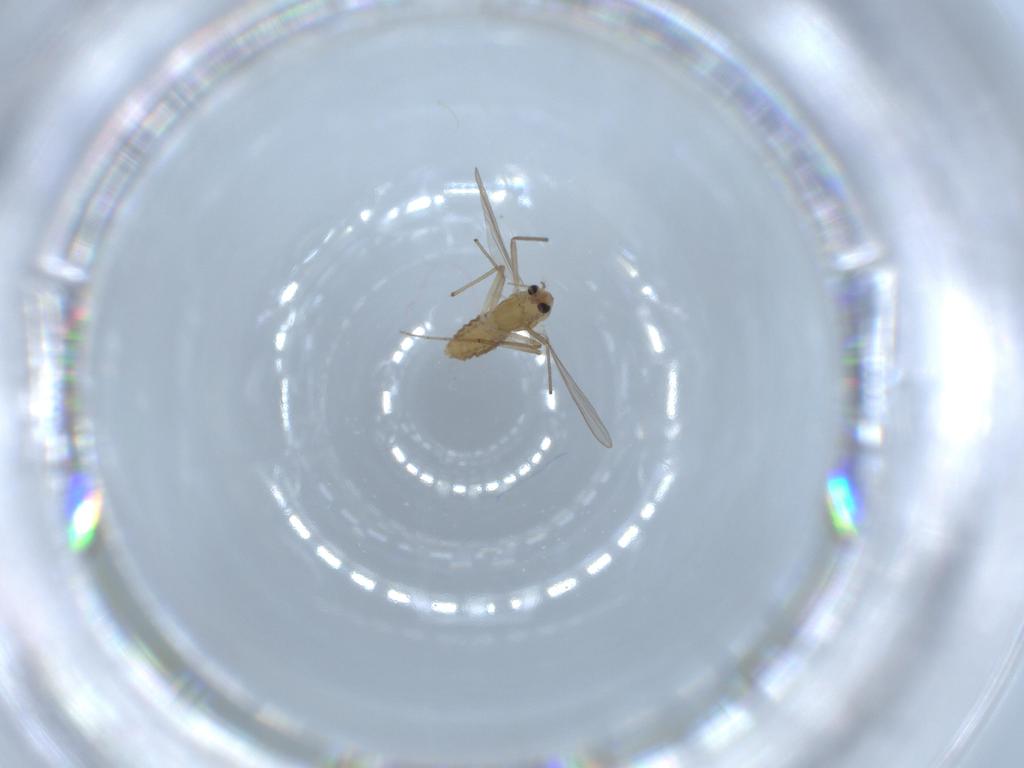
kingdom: Animalia
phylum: Arthropoda
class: Insecta
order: Diptera
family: Chironomidae
